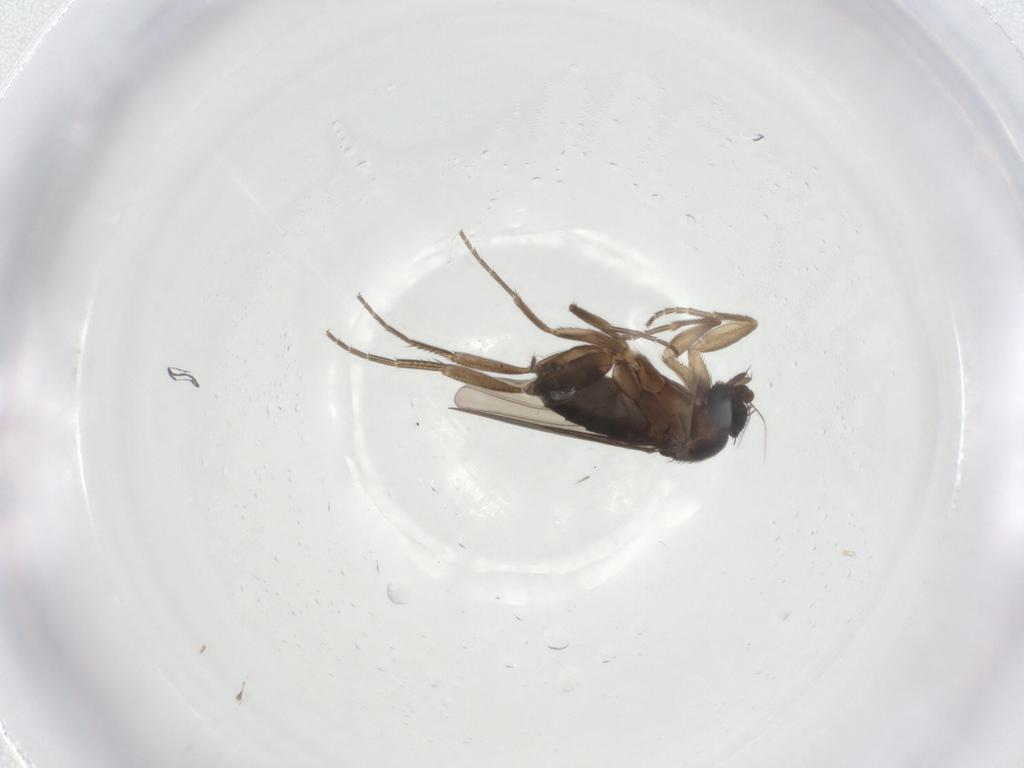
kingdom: Animalia
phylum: Arthropoda
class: Insecta
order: Diptera
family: Phoridae
